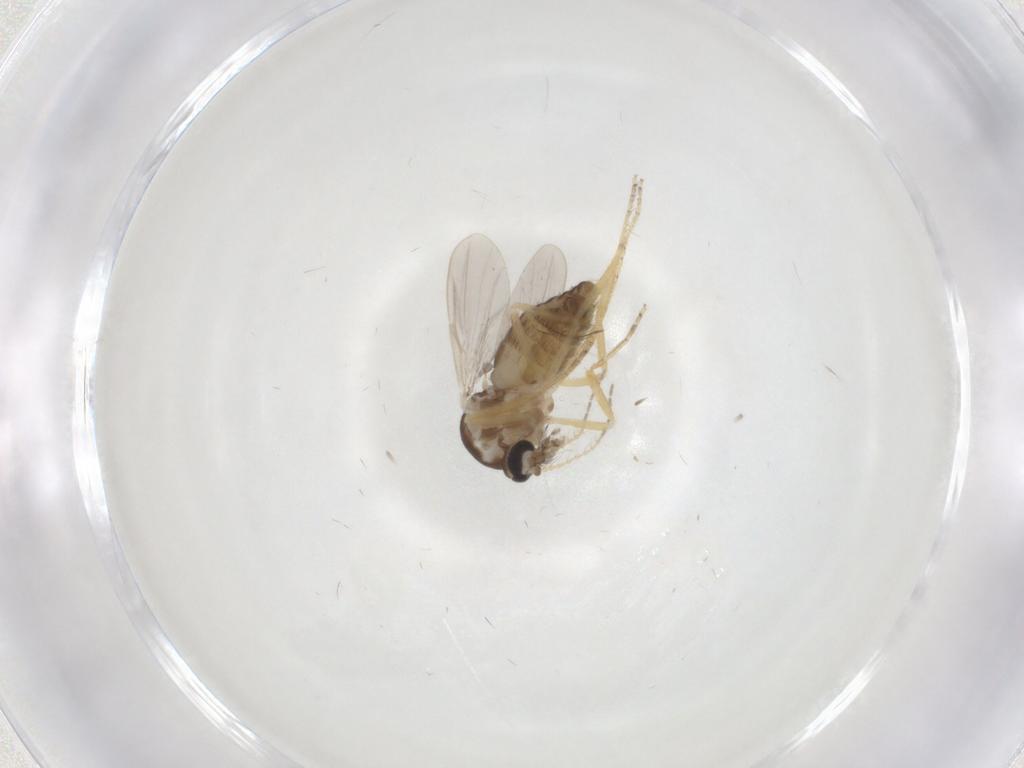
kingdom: Animalia
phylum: Arthropoda
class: Insecta
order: Diptera
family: Ceratopogonidae
